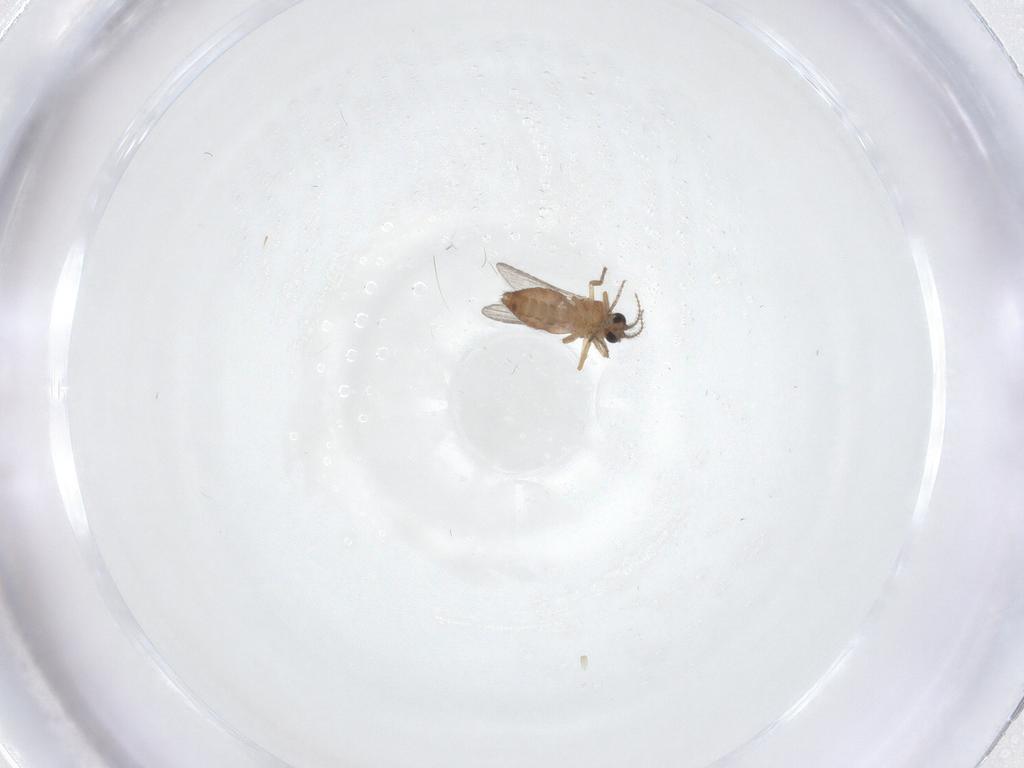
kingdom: Animalia
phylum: Arthropoda
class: Insecta
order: Diptera
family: Ceratopogonidae
